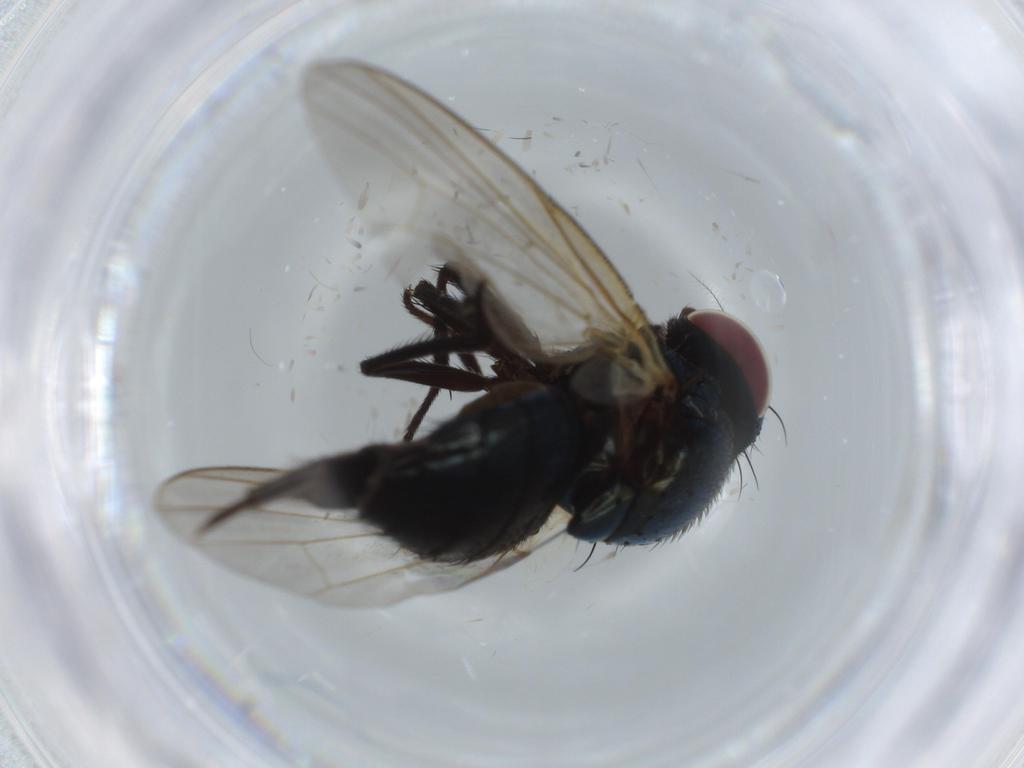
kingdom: Animalia
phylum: Arthropoda
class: Insecta
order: Diptera
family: Lonchaeidae
